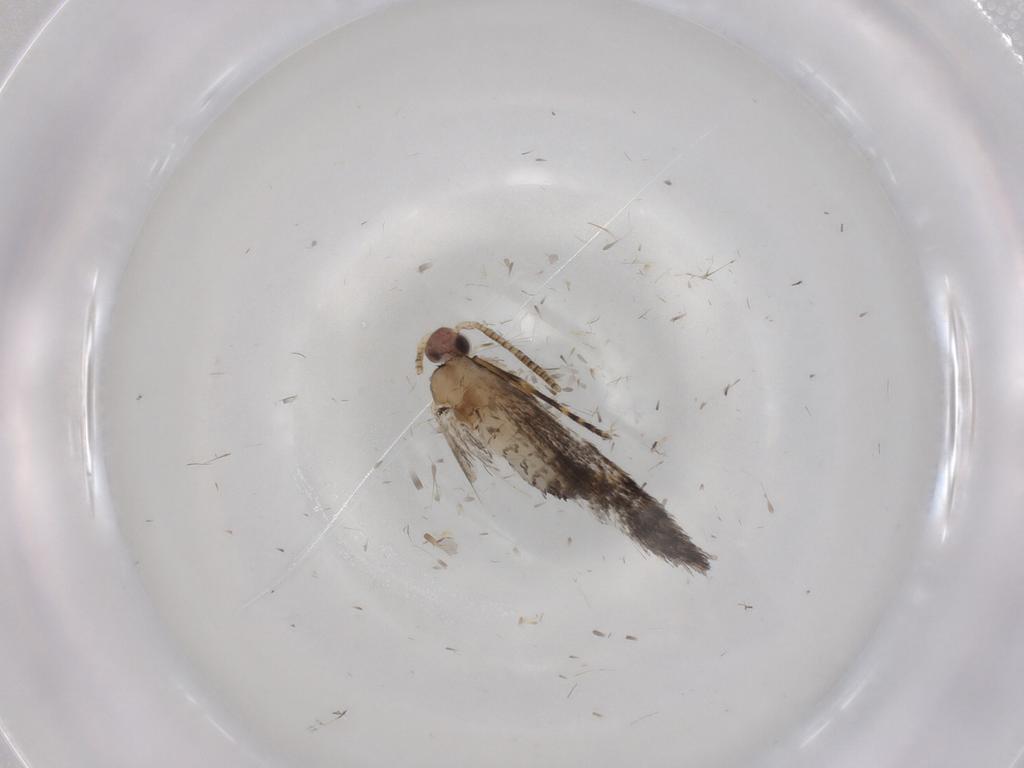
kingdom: Animalia
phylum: Arthropoda
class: Insecta
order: Lepidoptera
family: Tineidae
